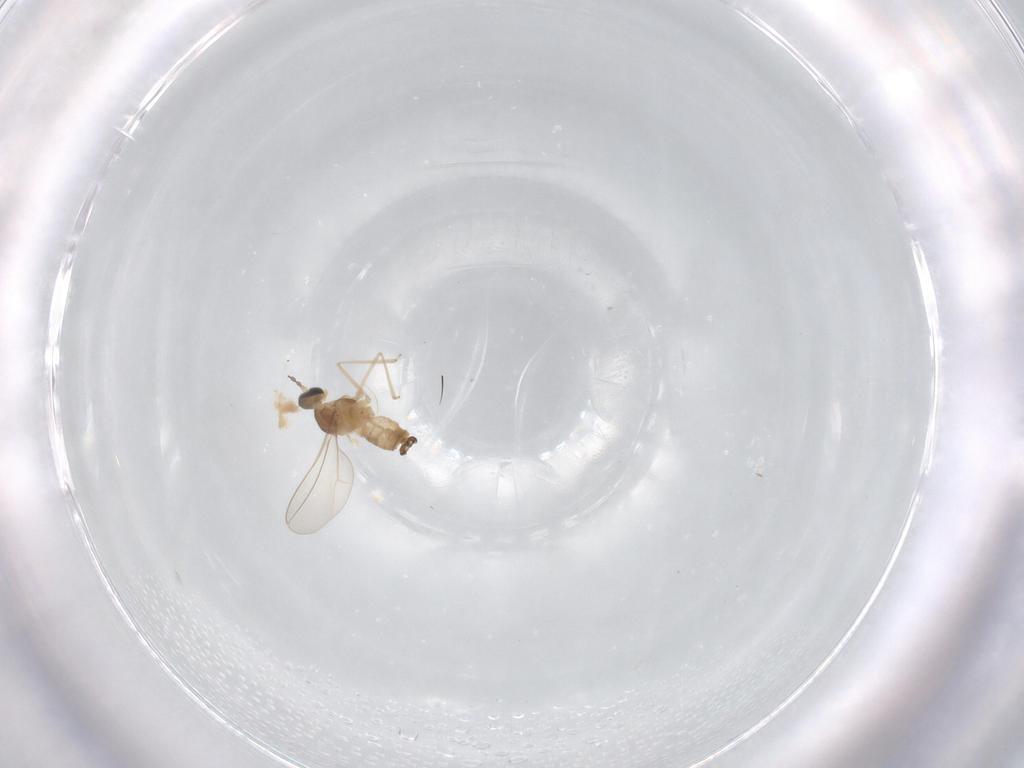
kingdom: Animalia
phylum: Arthropoda
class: Insecta
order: Diptera
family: Cecidomyiidae
